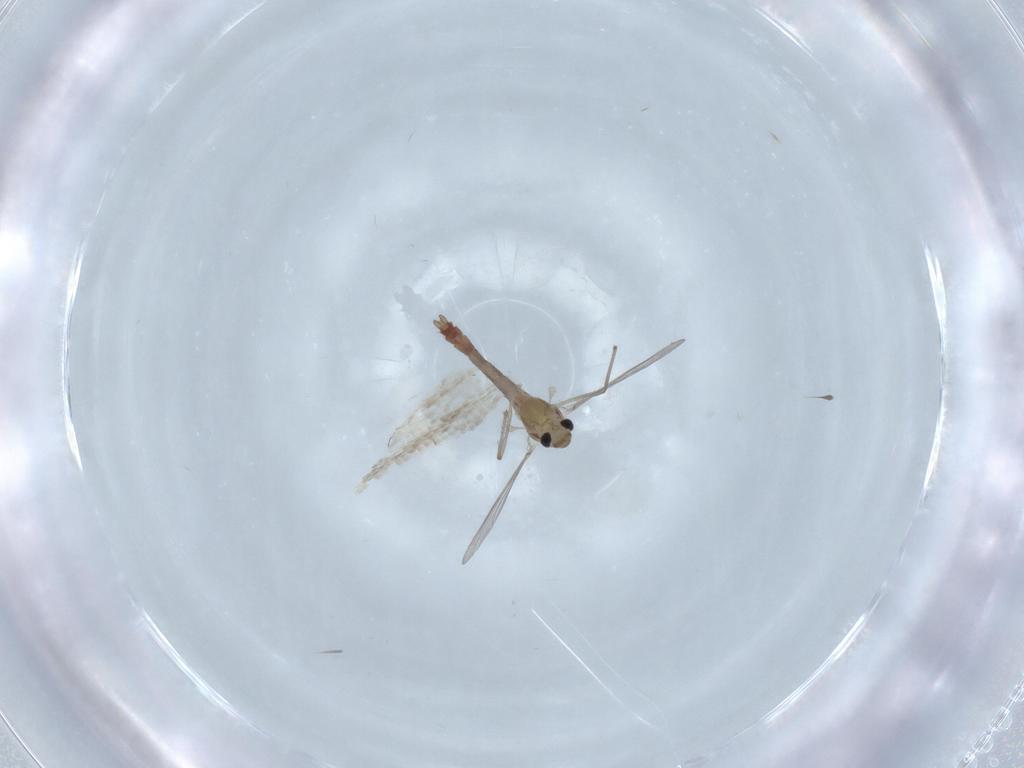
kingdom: Animalia
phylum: Arthropoda
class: Insecta
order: Diptera
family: Chironomidae
